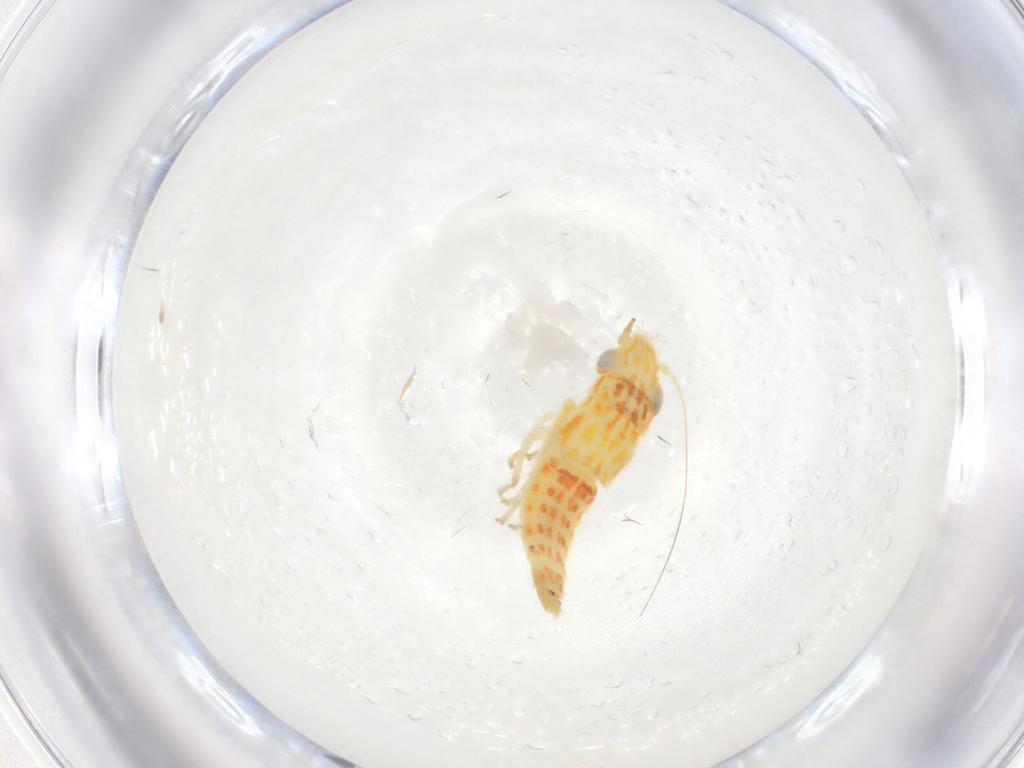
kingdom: Animalia
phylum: Arthropoda
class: Insecta
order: Hemiptera
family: Cicadellidae
